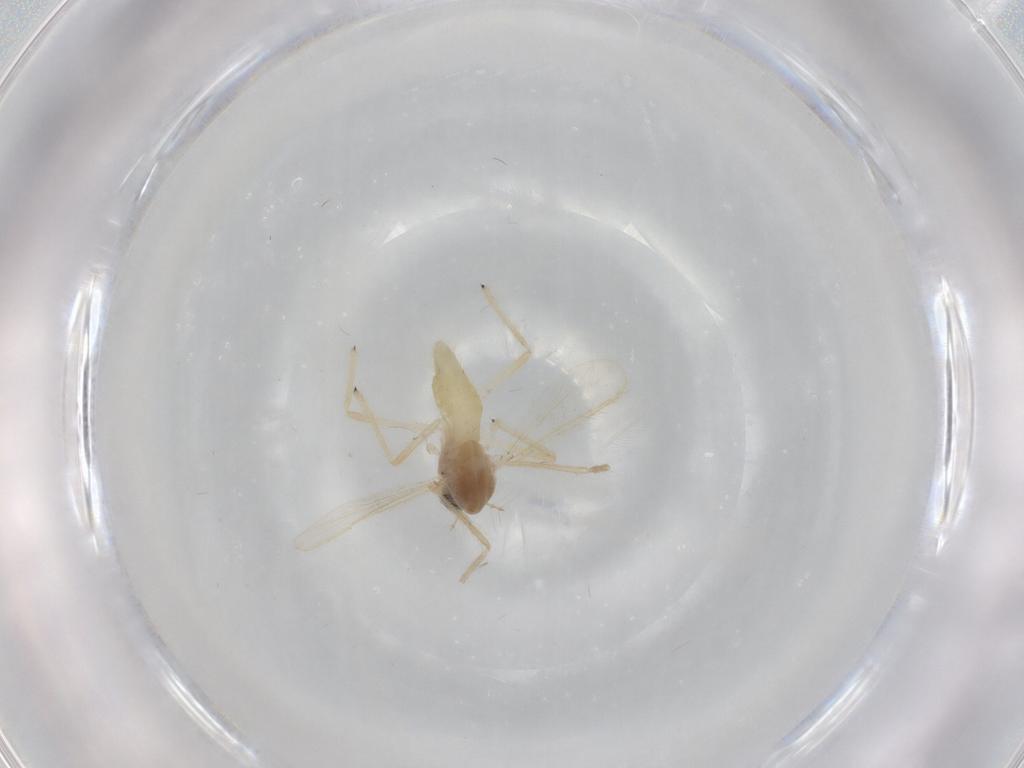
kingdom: Animalia
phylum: Arthropoda
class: Insecta
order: Diptera
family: Chironomidae
